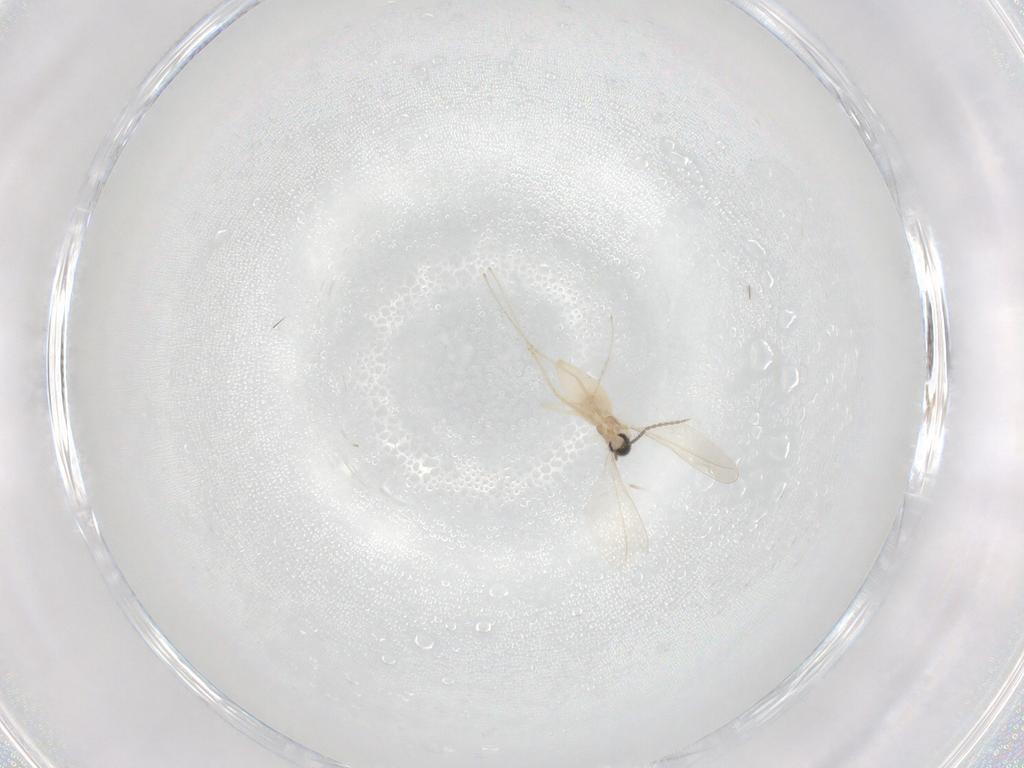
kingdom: Animalia
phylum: Arthropoda
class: Insecta
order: Diptera
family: Cecidomyiidae
